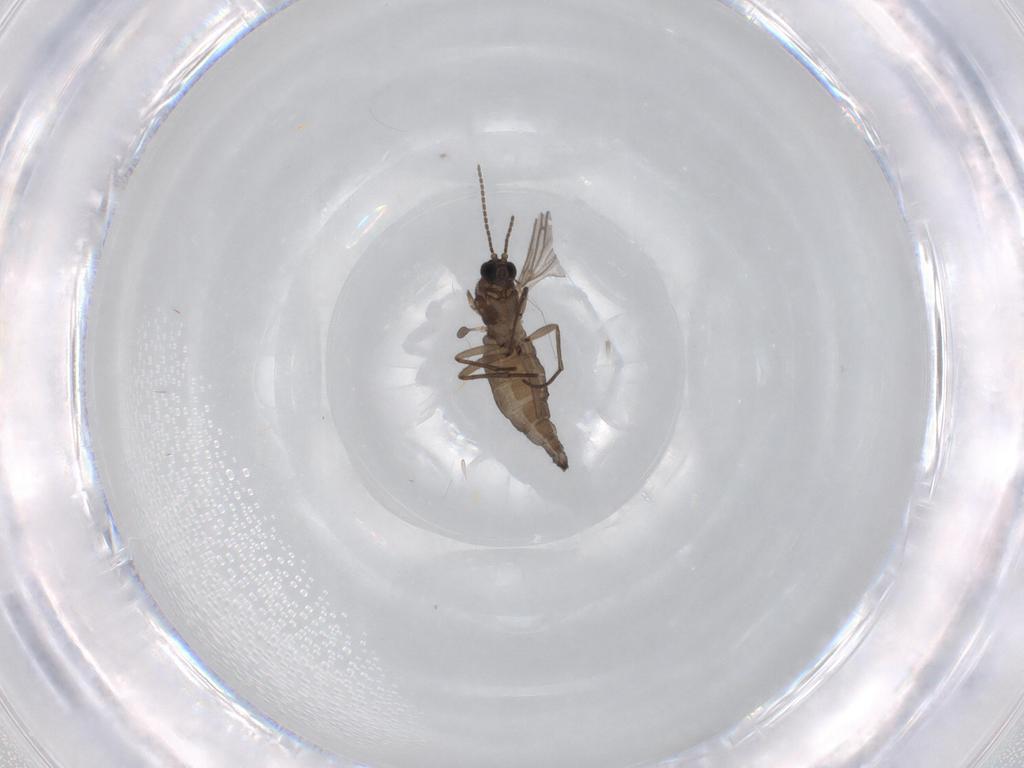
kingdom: Animalia
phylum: Arthropoda
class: Insecta
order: Diptera
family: Sciaridae
